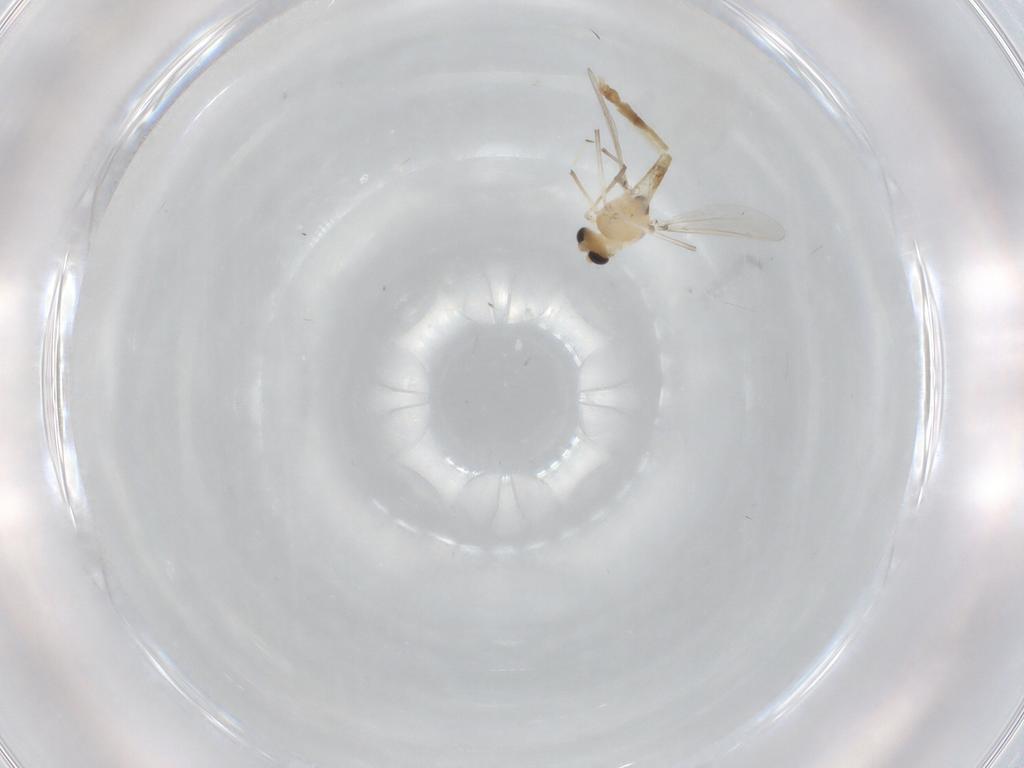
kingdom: Animalia
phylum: Arthropoda
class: Insecta
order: Diptera
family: Chironomidae
